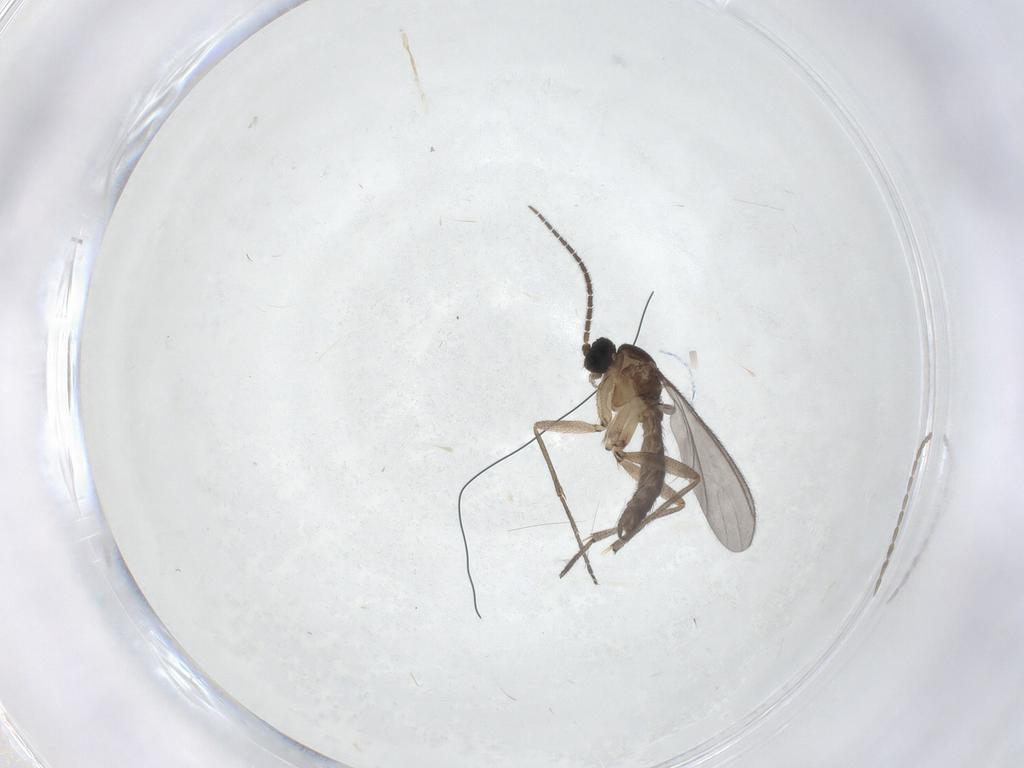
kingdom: Animalia
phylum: Arthropoda
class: Insecta
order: Diptera
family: Sciaridae
